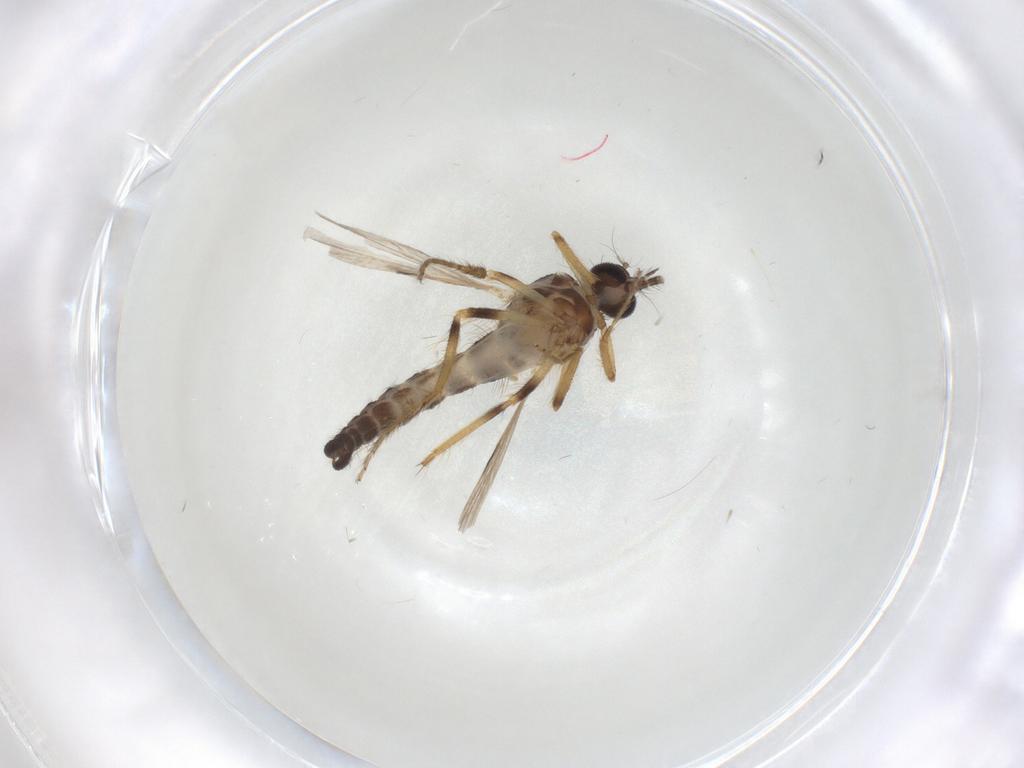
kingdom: Animalia
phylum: Arthropoda
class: Insecta
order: Diptera
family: Ceratopogonidae
